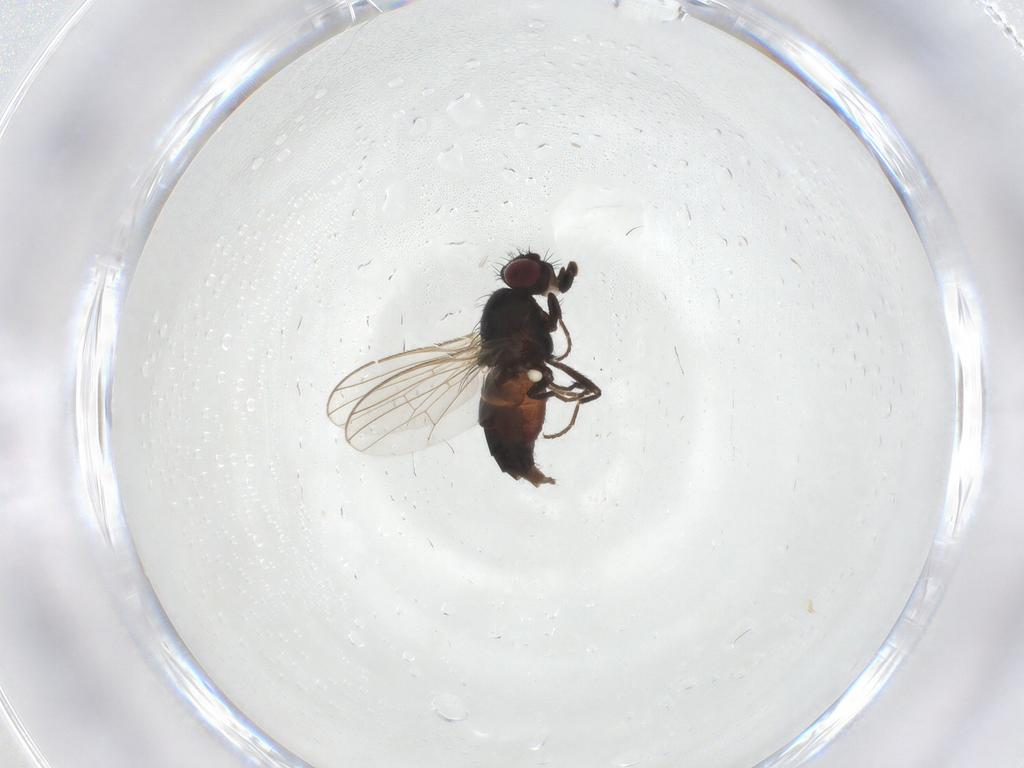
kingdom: Animalia
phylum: Arthropoda
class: Insecta
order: Diptera
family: Carnidae
